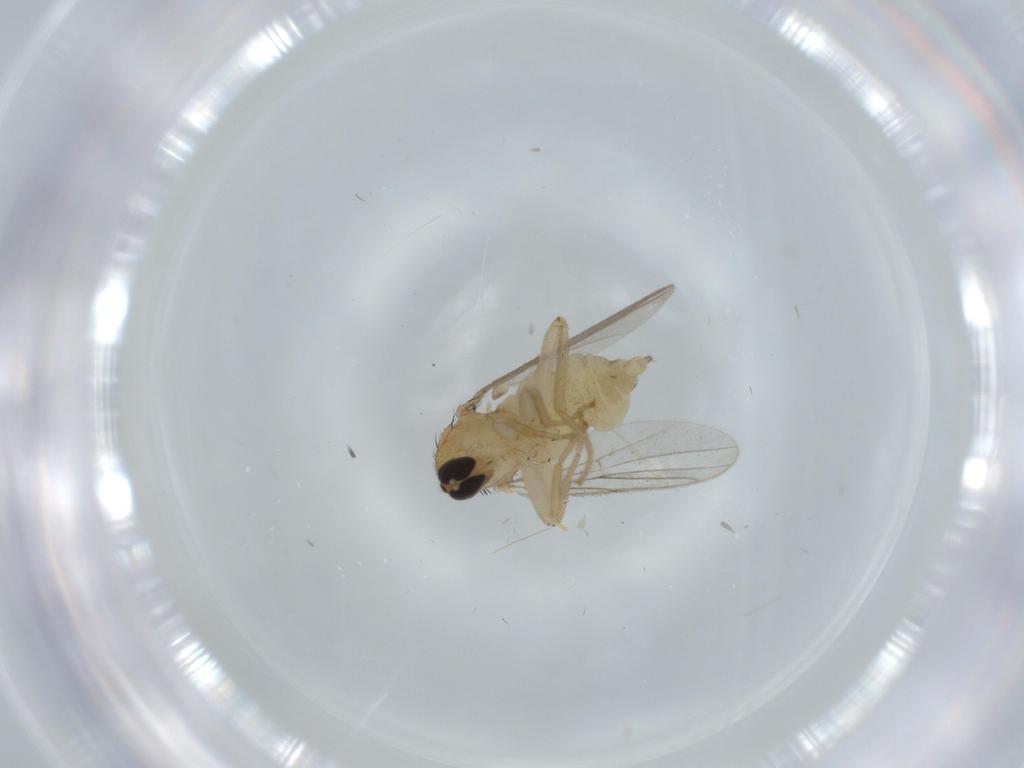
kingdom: Animalia
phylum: Arthropoda
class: Insecta
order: Diptera
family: Hybotidae
